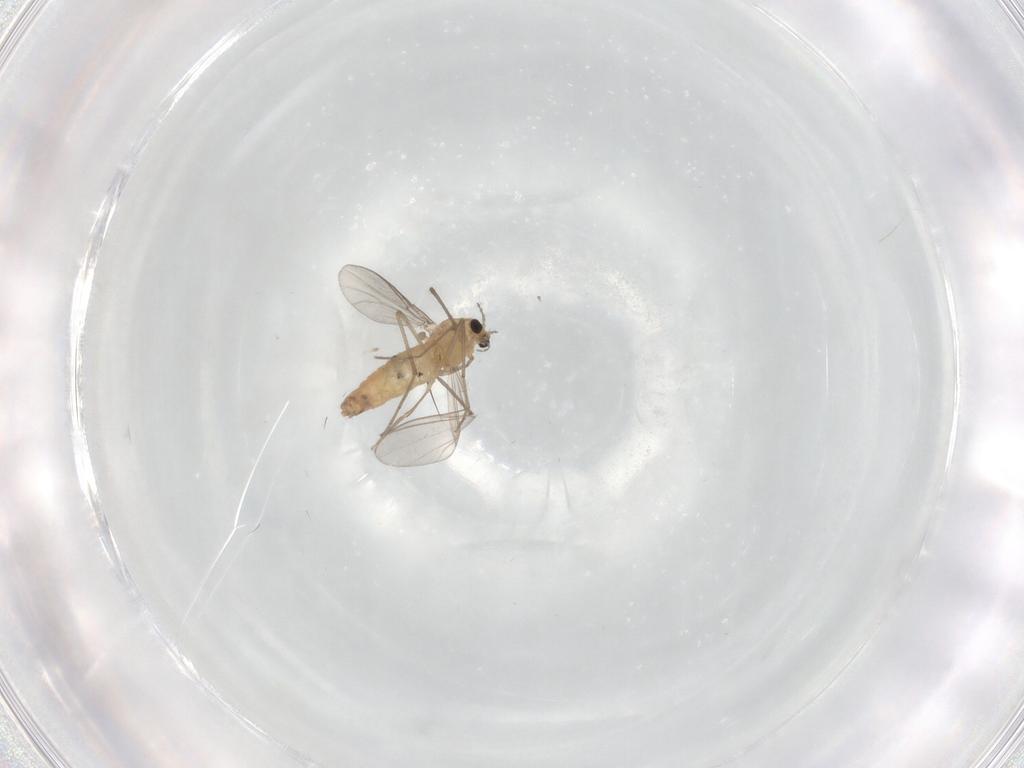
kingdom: Animalia
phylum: Arthropoda
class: Insecta
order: Diptera
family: Chironomidae
